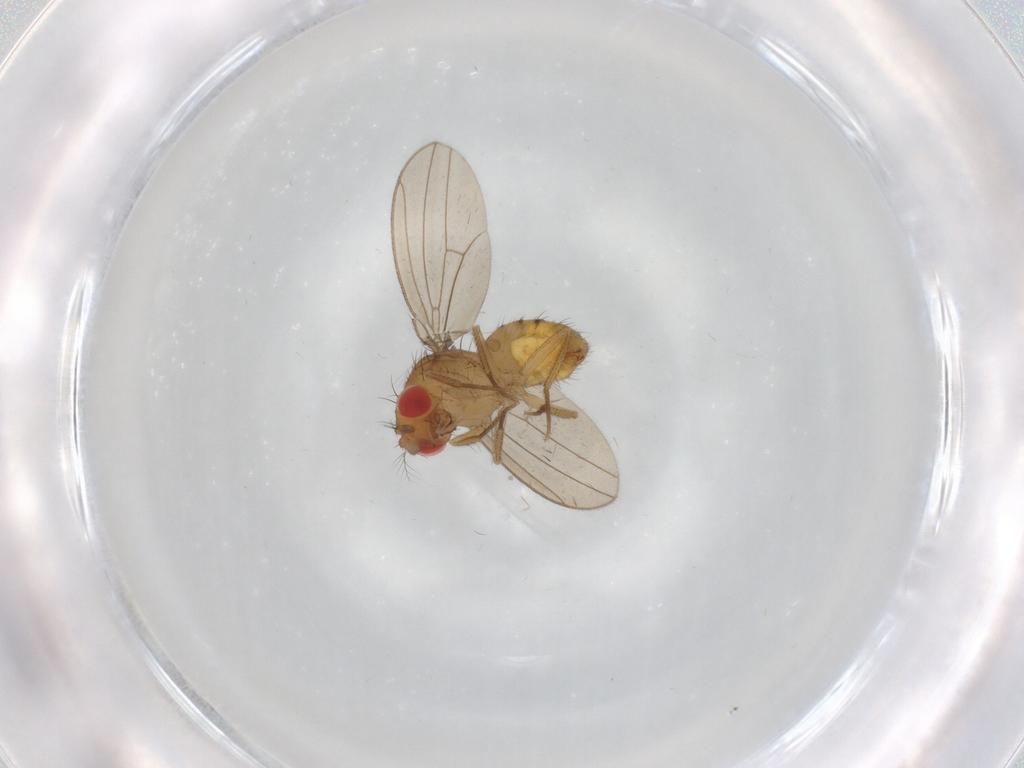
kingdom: Animalia
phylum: Arthropoda
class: Insecta
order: Diptera
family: Drosophilidae
